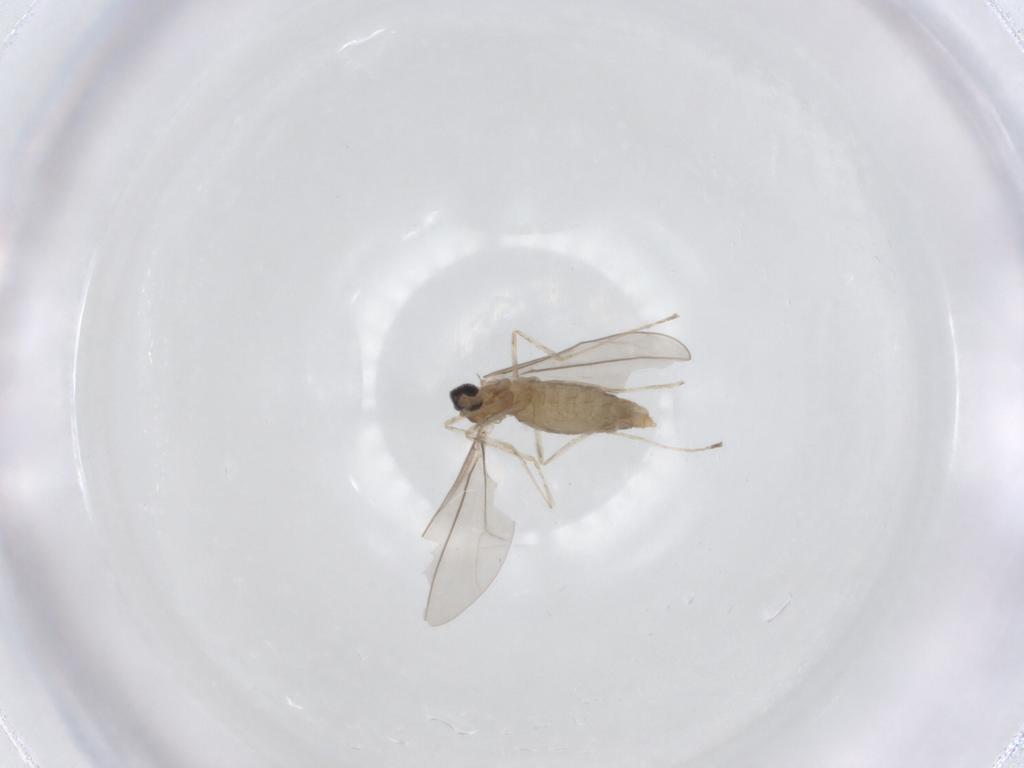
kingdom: Animalia
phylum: Arthropoda
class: Insecta
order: Diptera
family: Cecidomyiidae
